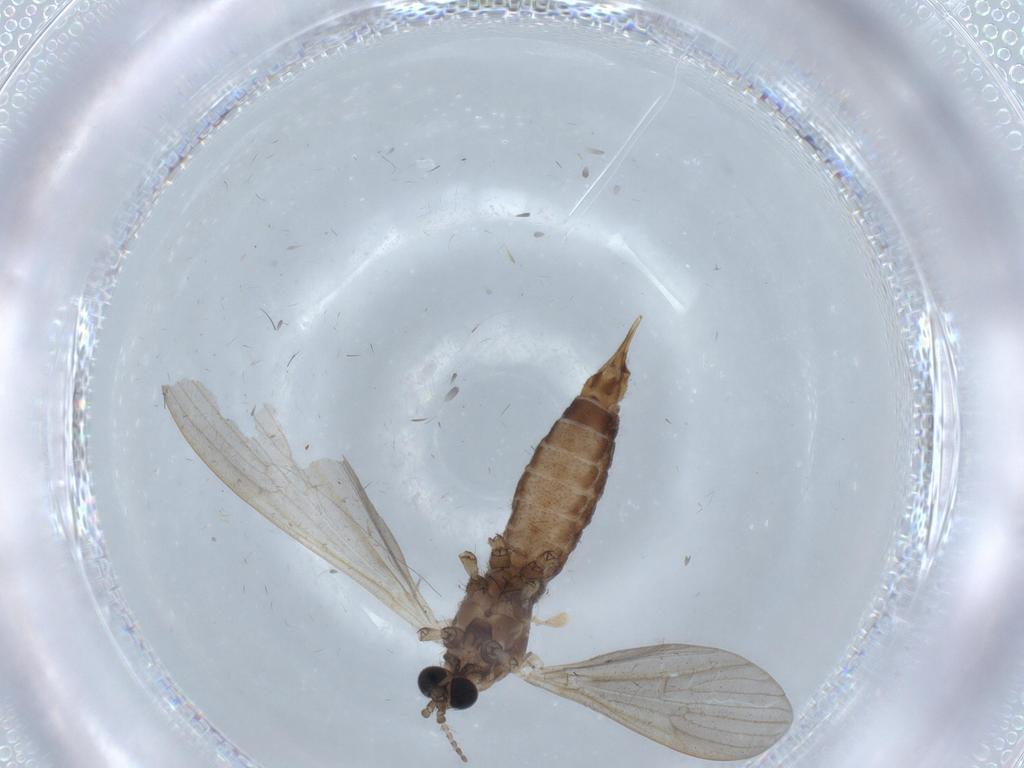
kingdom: Animalia
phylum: Arthropoda
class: Insecta
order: Diptera
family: Limoniidae
